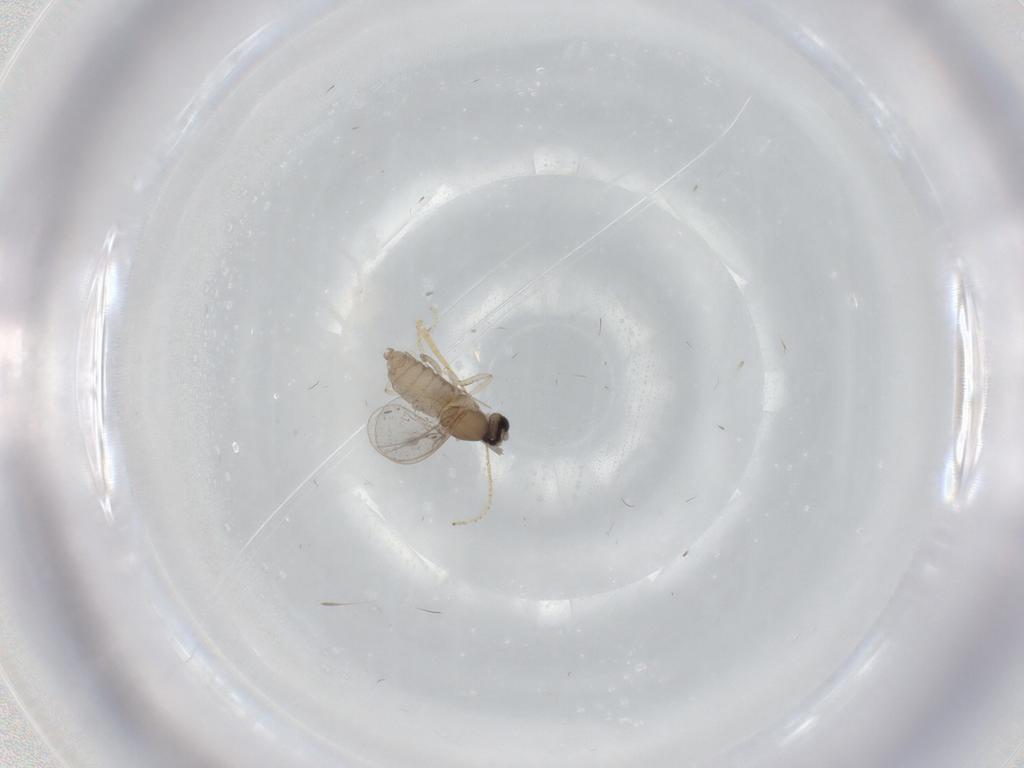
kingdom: Animalia
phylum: Arthropoda
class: Insecta
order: Diptera
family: Cecidomyiidae
